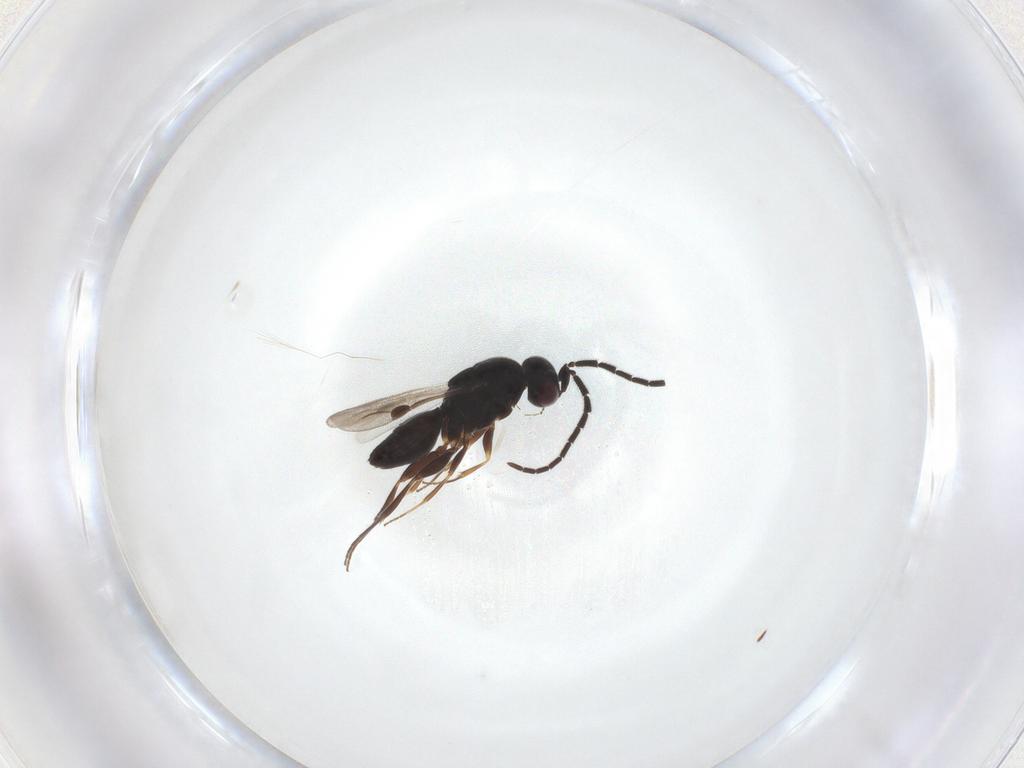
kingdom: Animalia
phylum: Arthropoda
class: Insecta
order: Hymenoptera
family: Megaspilidae
